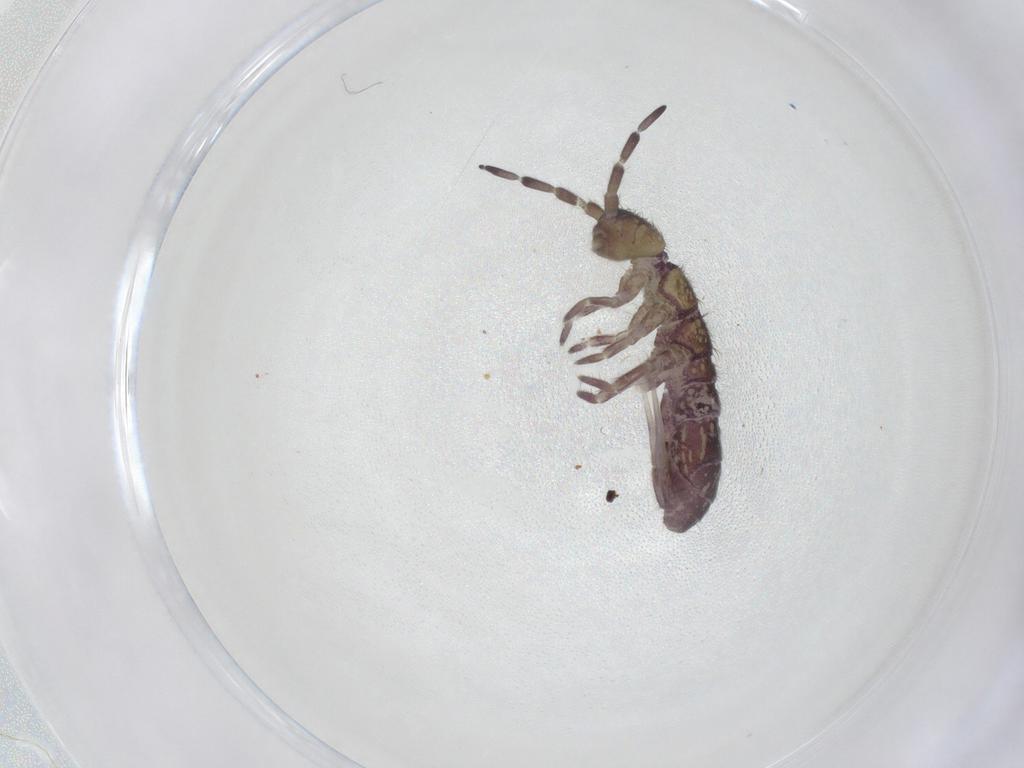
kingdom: Animalia
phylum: Arthropoda
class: Collembola
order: Entomobryomorpha
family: Isotomidae
